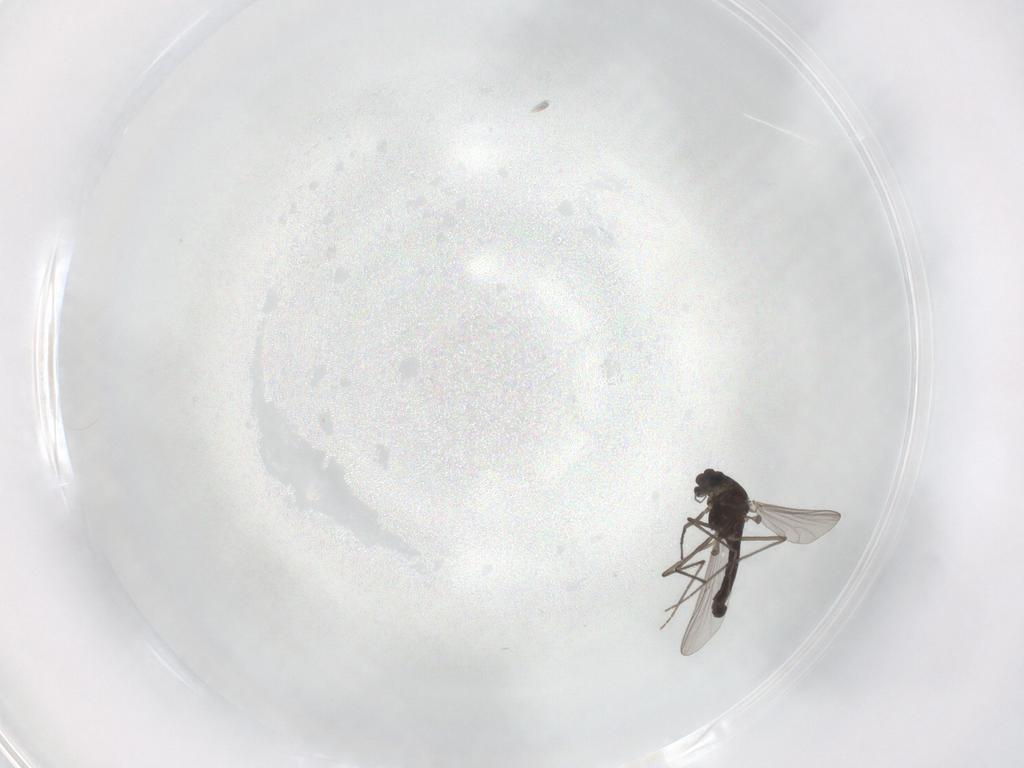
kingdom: Animalia
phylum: Arthropoda
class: Insecta
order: Diptera
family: Chironomidae
